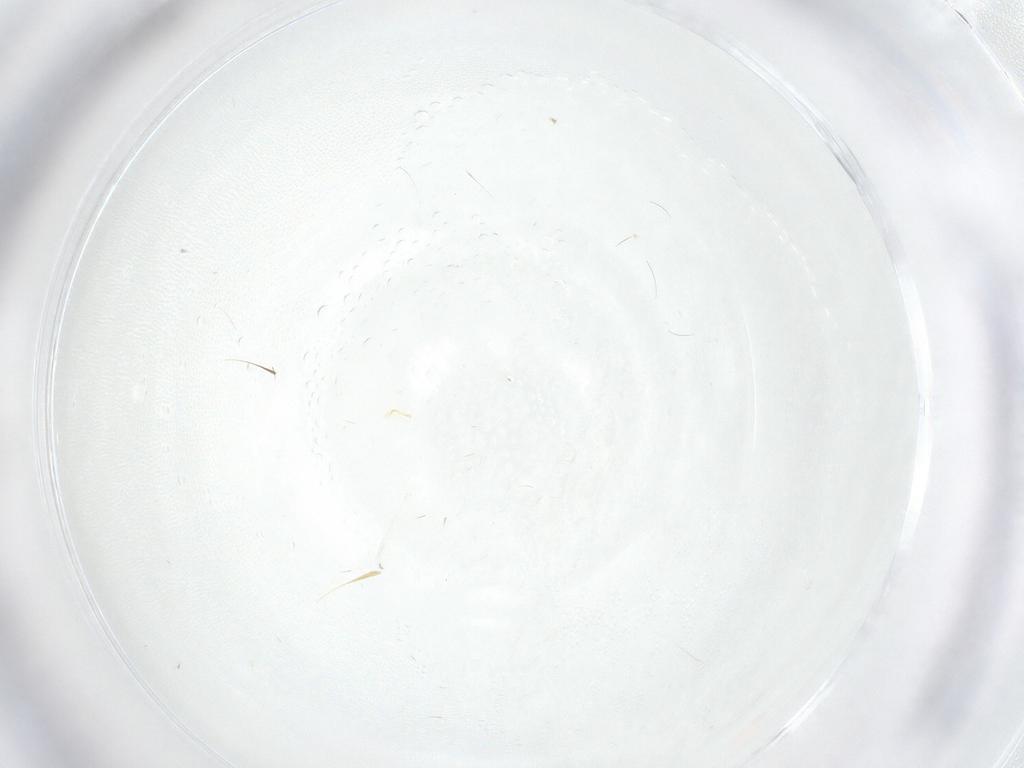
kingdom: Animalia
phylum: Arthropoda
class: Insecta
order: Diptera
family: Ceratopogonidae
